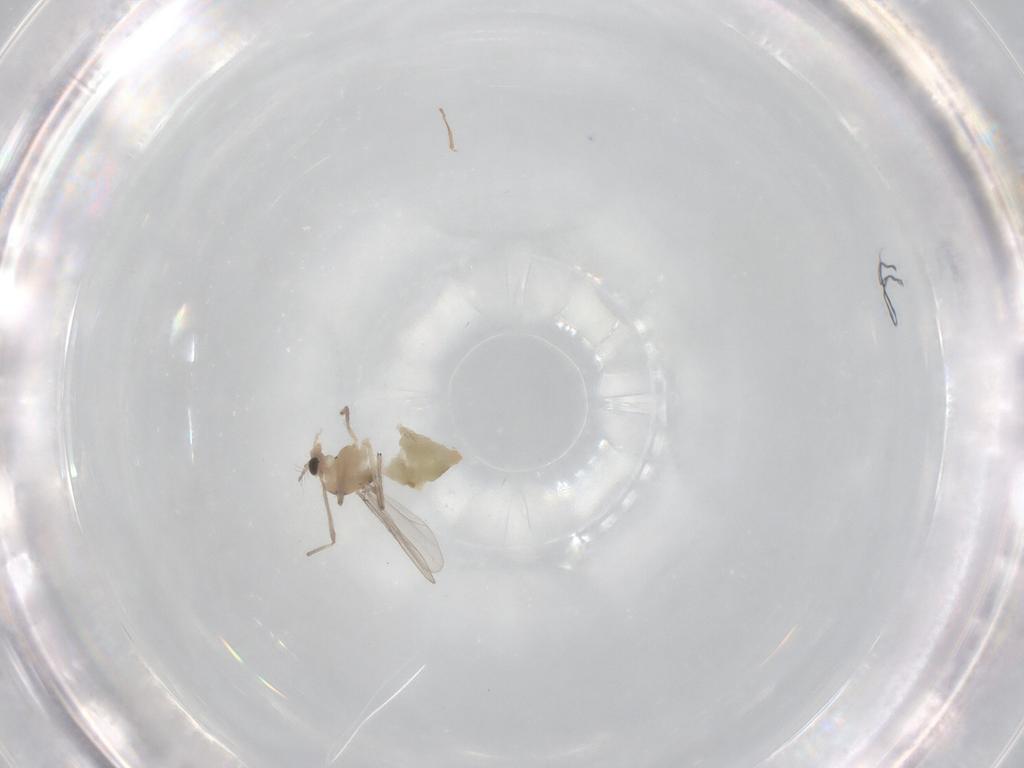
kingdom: Animalia
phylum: Arthropoda
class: Insecta
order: Diptera
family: Chironomidae
